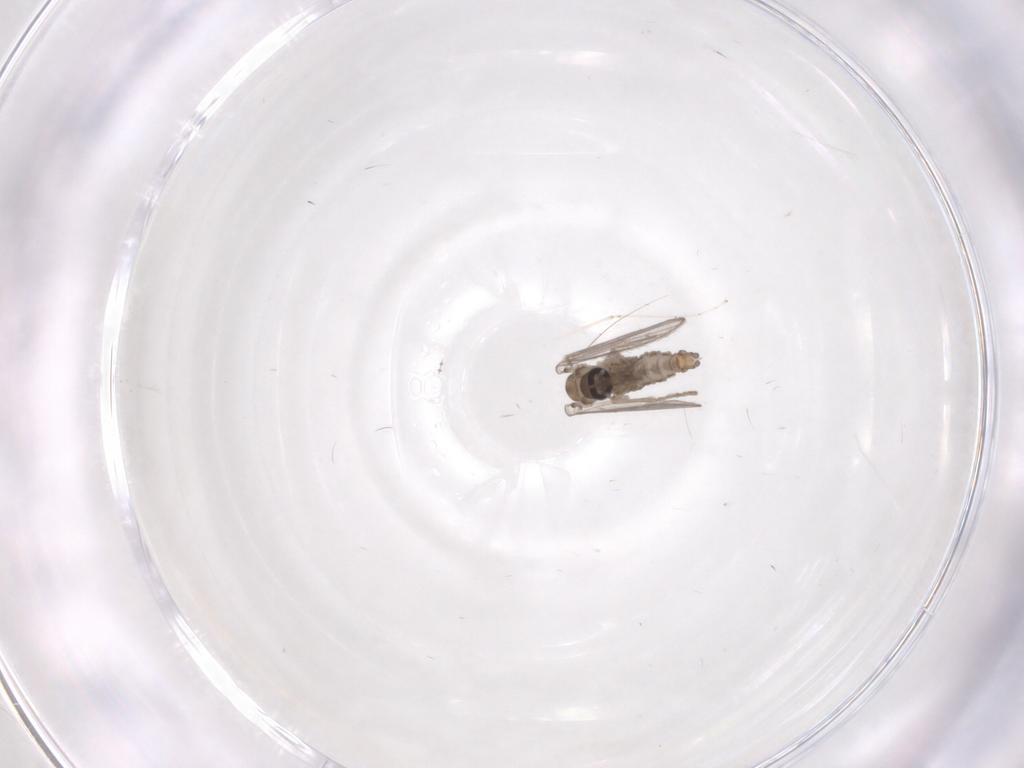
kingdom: Animalia
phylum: Arthropoda
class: Insecta
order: Diptera
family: Cecidomyiidae
